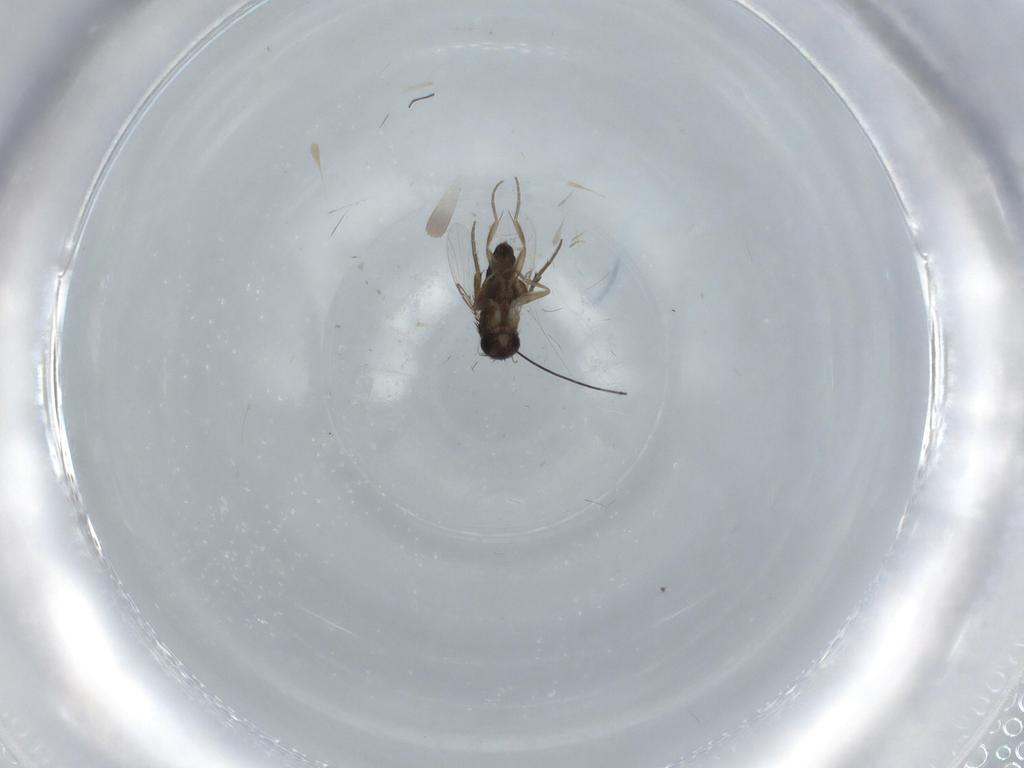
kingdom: Animalia
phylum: Arthropoda
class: Insecta
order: Diptera
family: Phoridae
